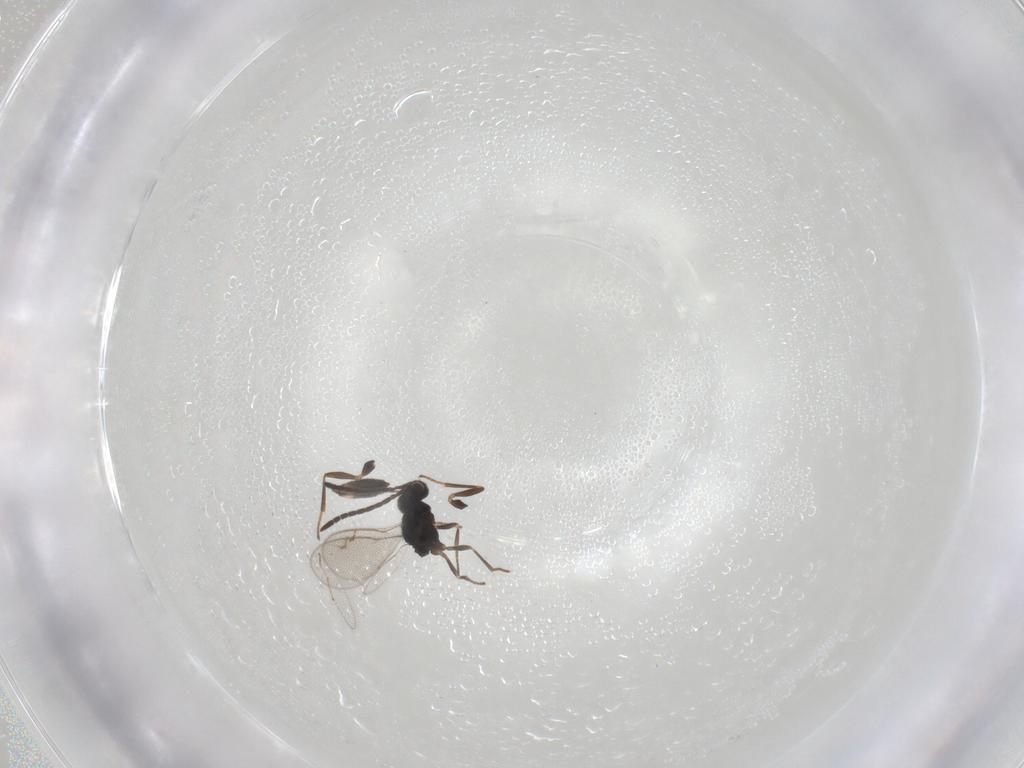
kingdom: Animalia
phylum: Arthropoda
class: Insecta
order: Hymenoptera
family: Pteromalidae
